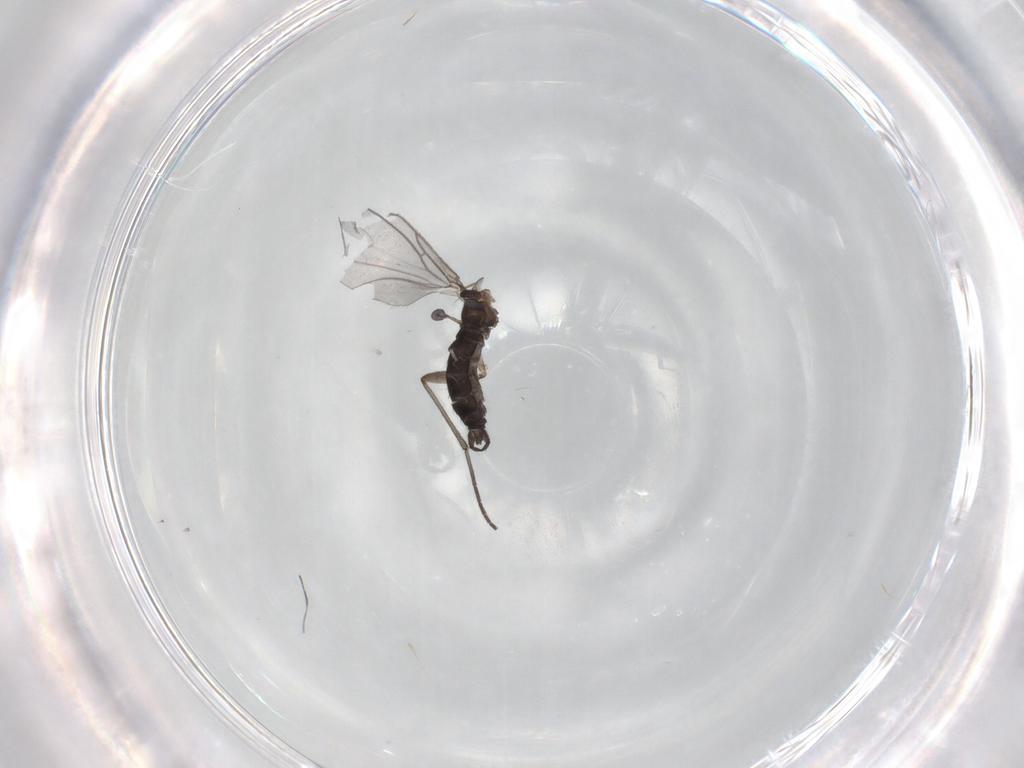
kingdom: Animalia
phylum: Arthropoda
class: Insecta
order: Diptera
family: Sciaridae
